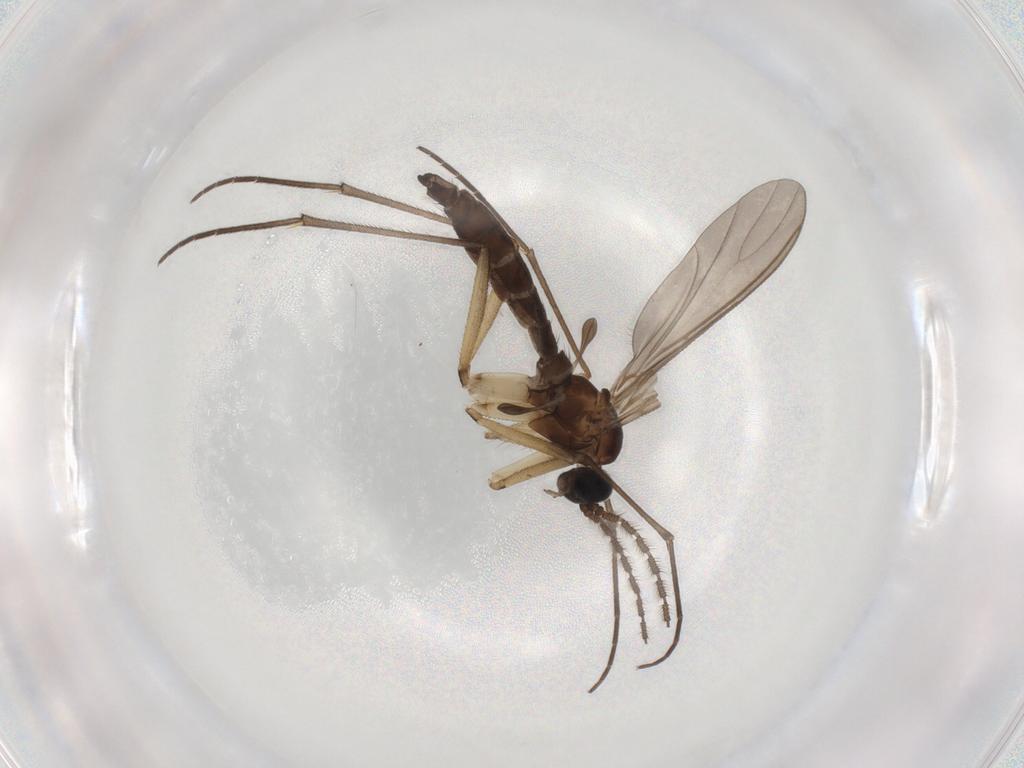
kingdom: Animalia
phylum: Arthropoda
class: Insecta
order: Diptera
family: Sciaridae
